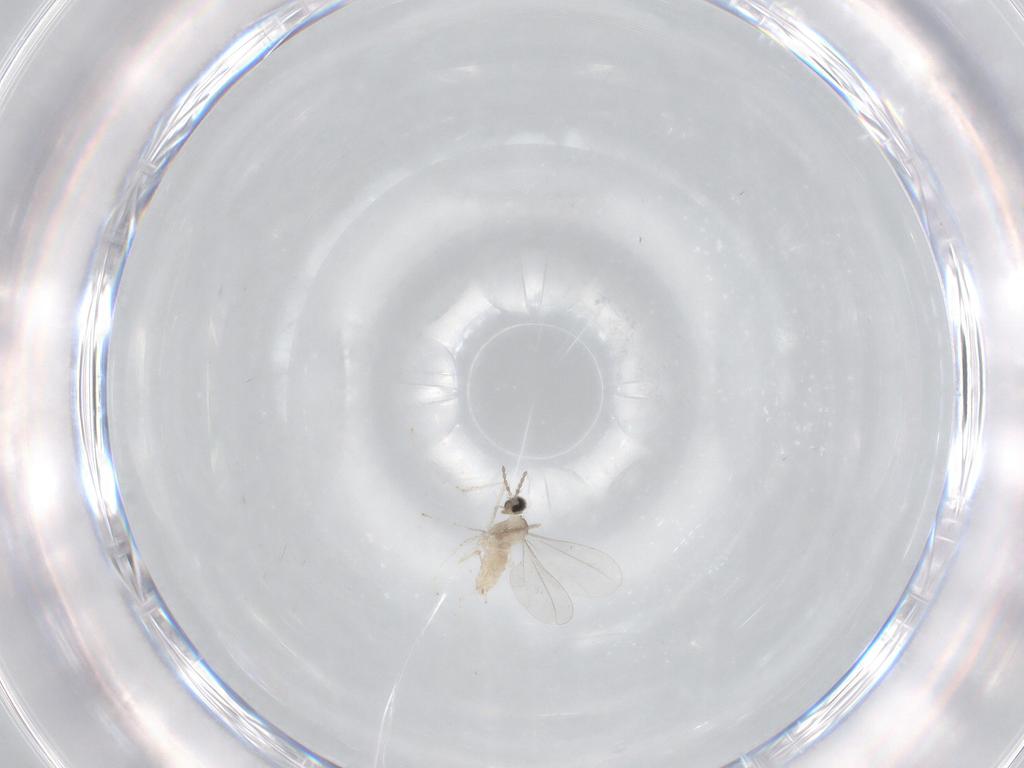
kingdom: Animalia
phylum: Arthropoda
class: Insecta
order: Diptera
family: Cecidomyiidae
